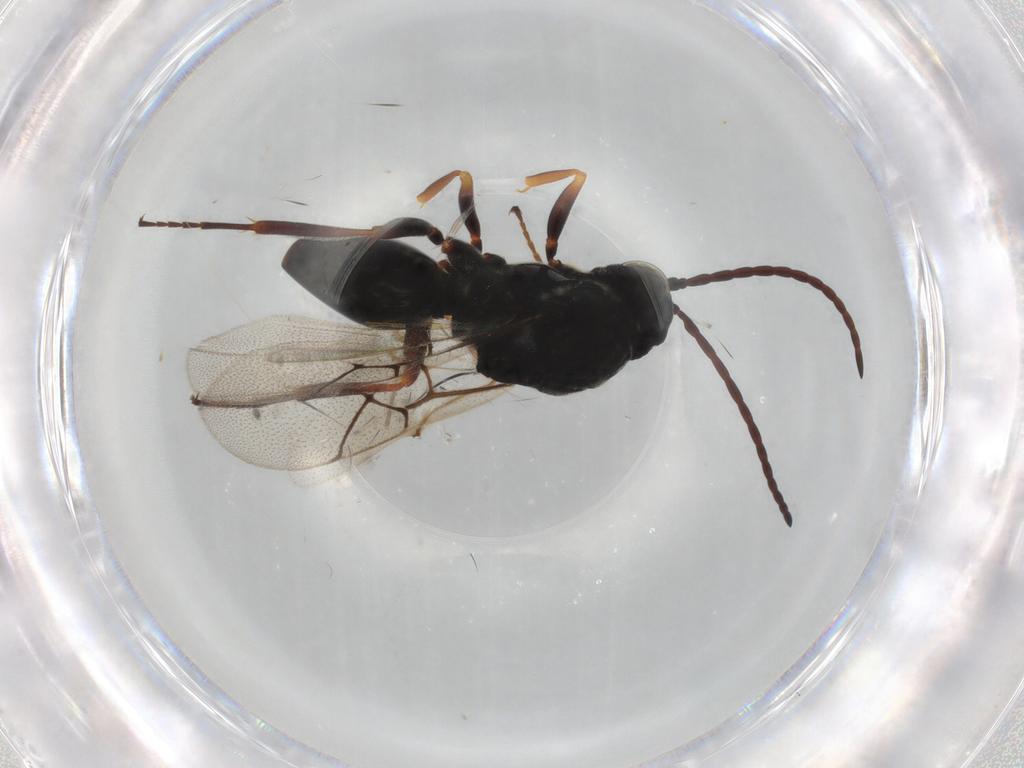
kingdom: Animalia
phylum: Arthropoda
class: Insecta
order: Hymenoptera
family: Figitidae
